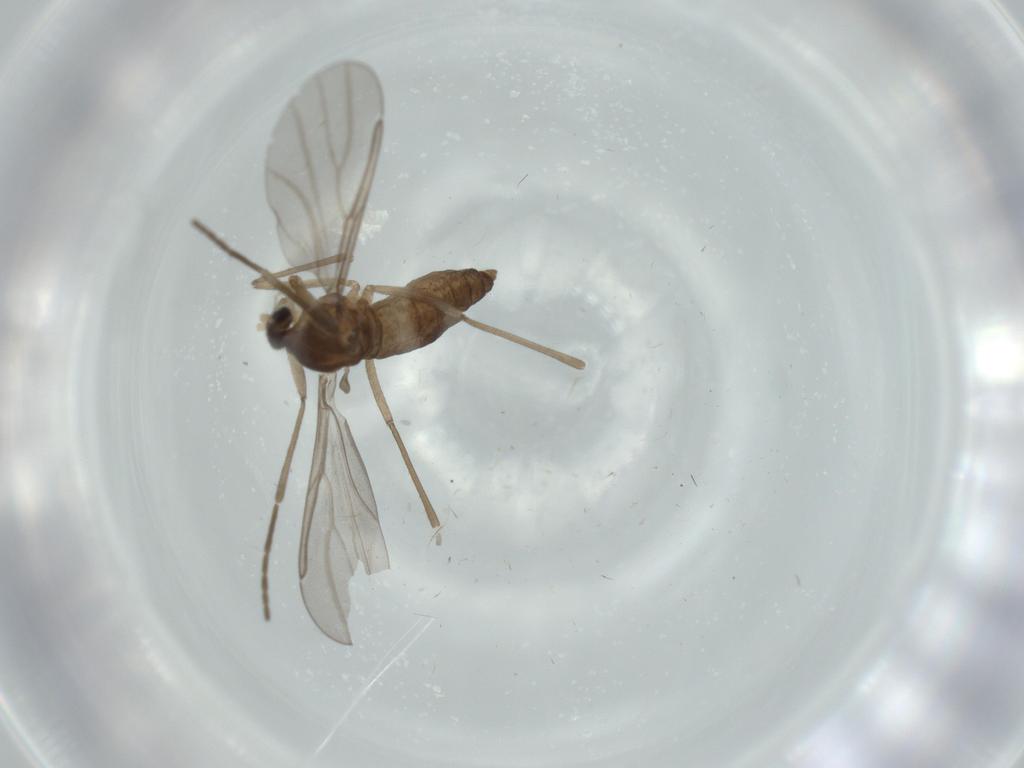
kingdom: Animalia
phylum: Arthropoda
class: Insecta
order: Diptera
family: Cecidomyiidae
